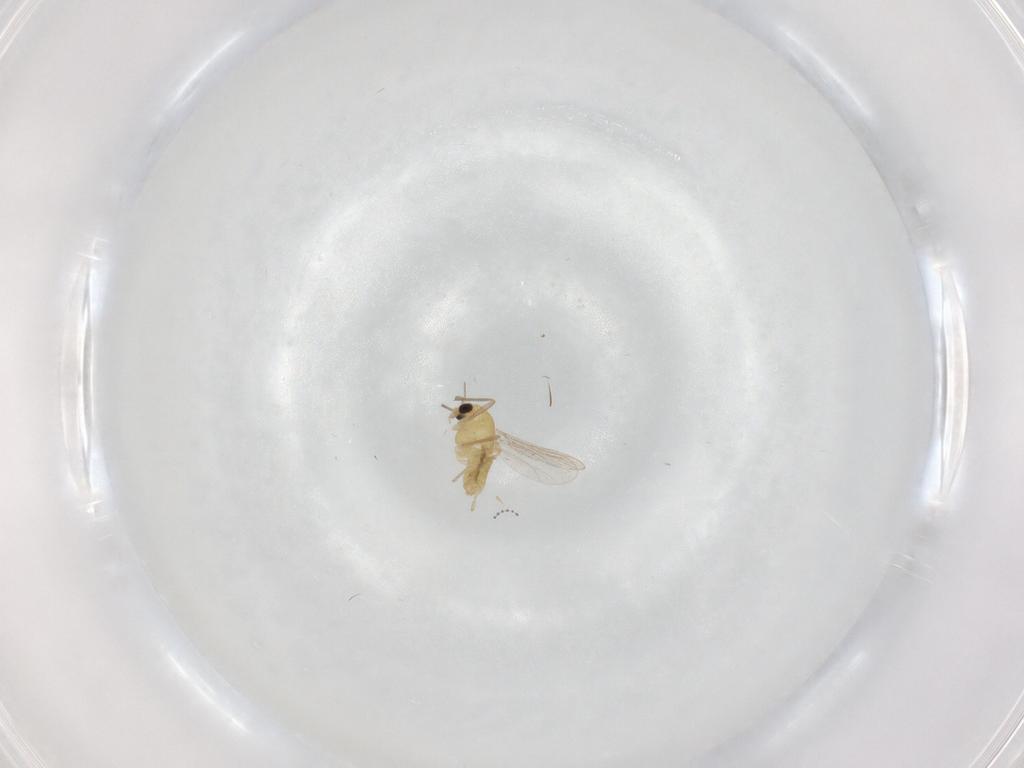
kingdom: Animalia
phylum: Arthropoda
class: Insecta
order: Diptera
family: Chironomidae
